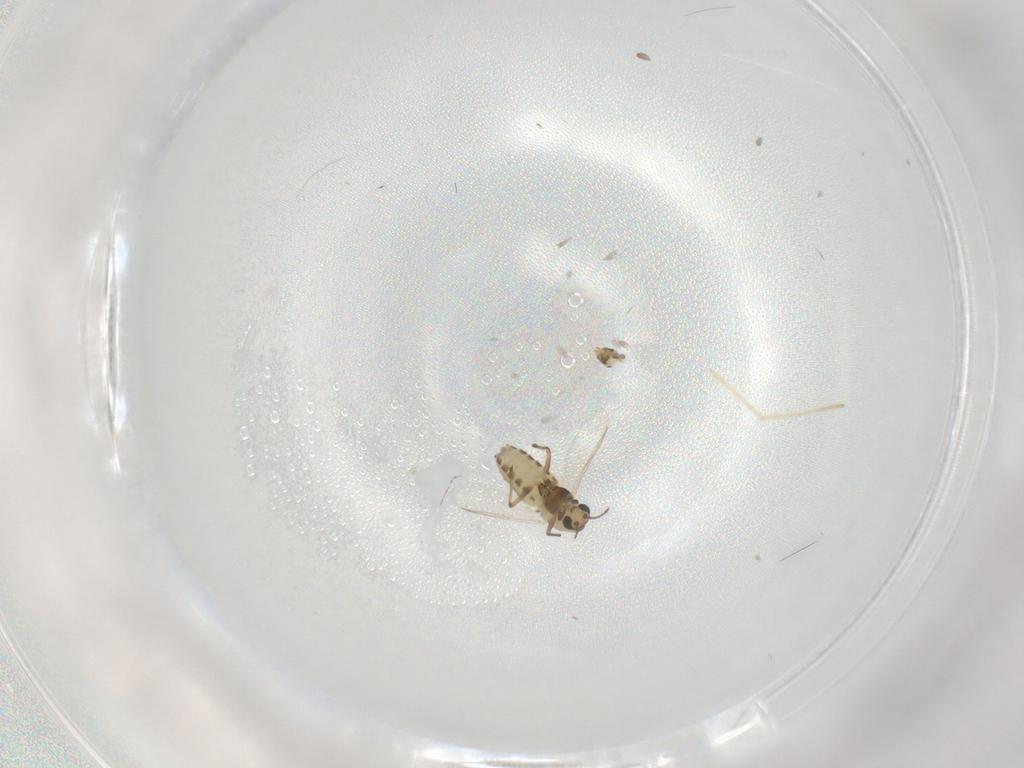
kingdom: Animalia
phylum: Arthropoda
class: Insecta
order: Diptera
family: Chironomidae
